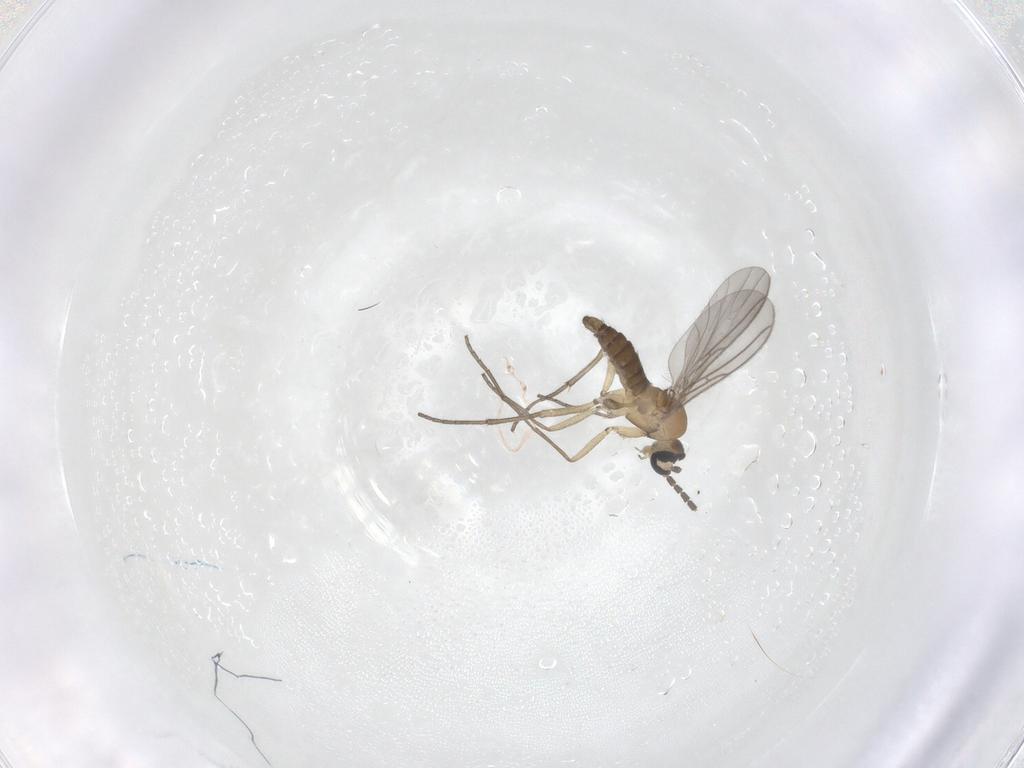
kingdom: Animalia
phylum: Arthropoda
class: Insecta
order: Diptera
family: Sciaridae
